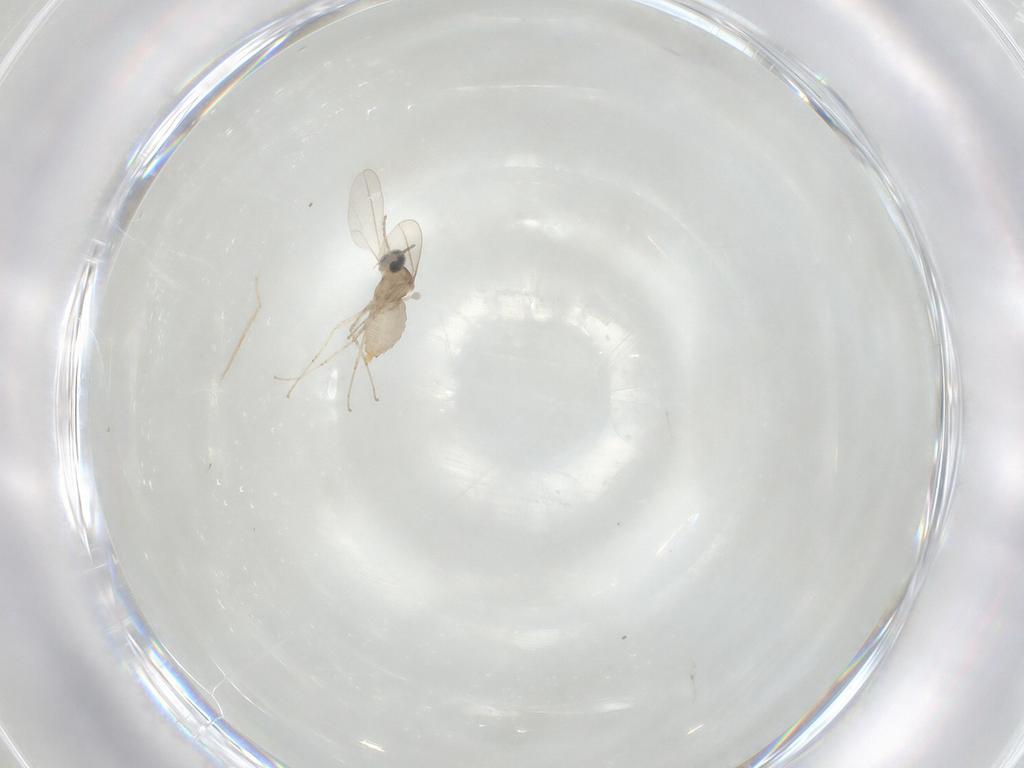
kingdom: Animalia
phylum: Arthropoda
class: Insecta
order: Diptera
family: Cecidomyiidae
